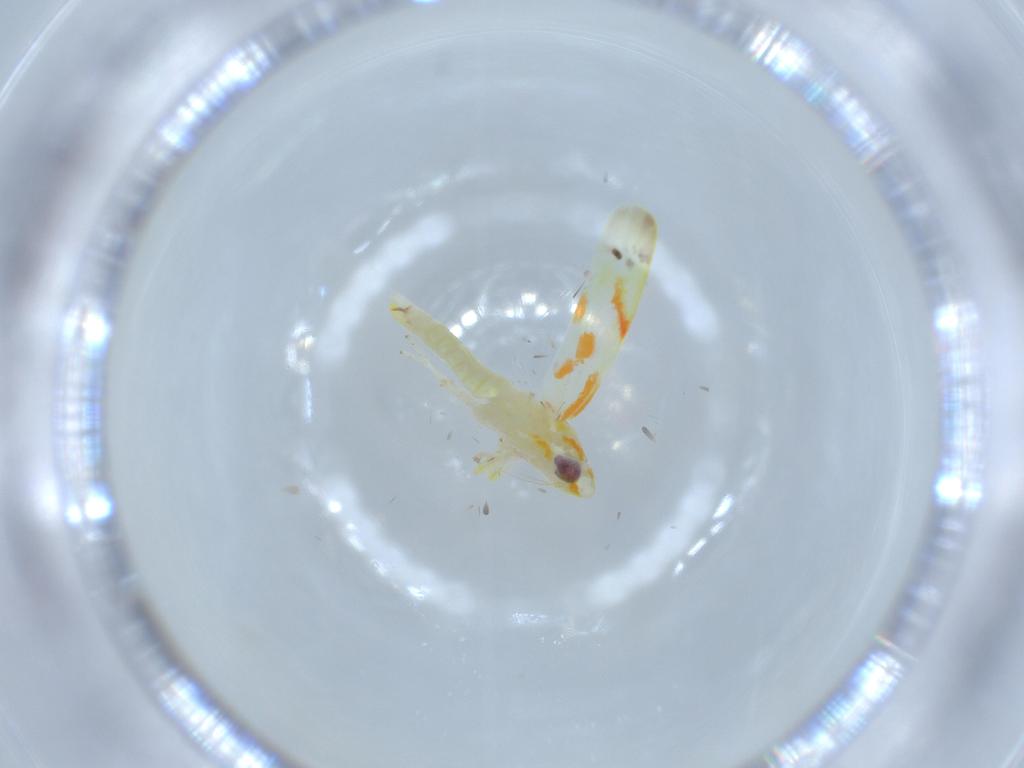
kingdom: Animalia
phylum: Arthropoda
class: Insecta
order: Hemiptera
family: Cicadellidae
